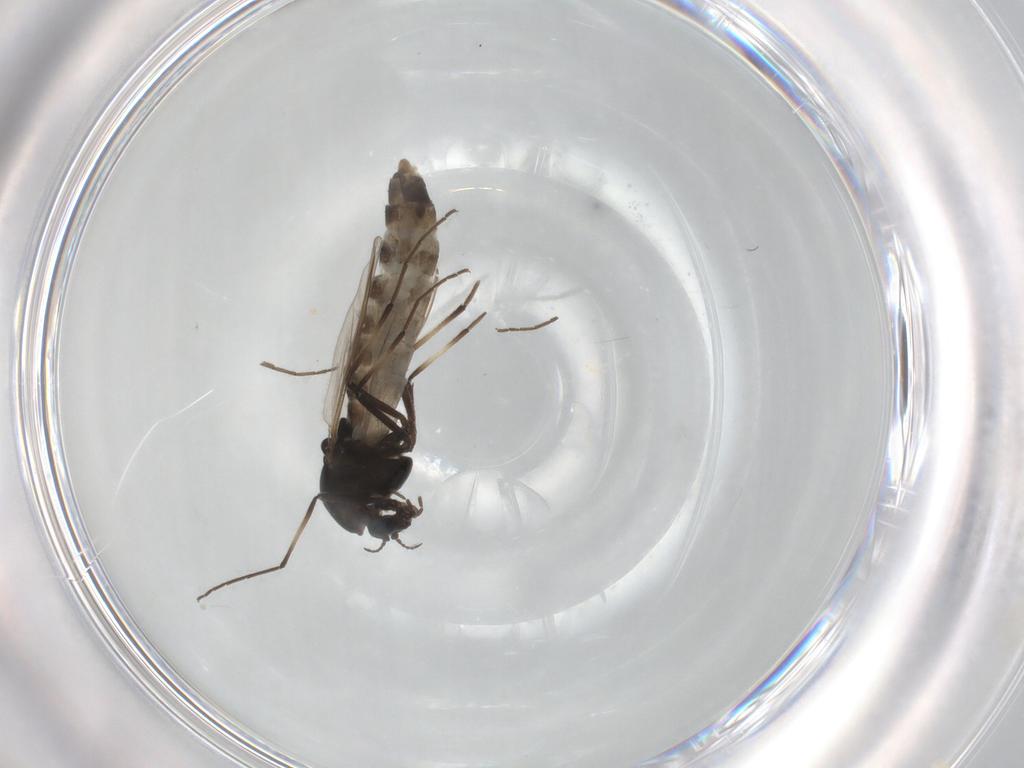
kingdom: Animalia
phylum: Arthropoda
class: Insecta
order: Diptera
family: Chironomidae
